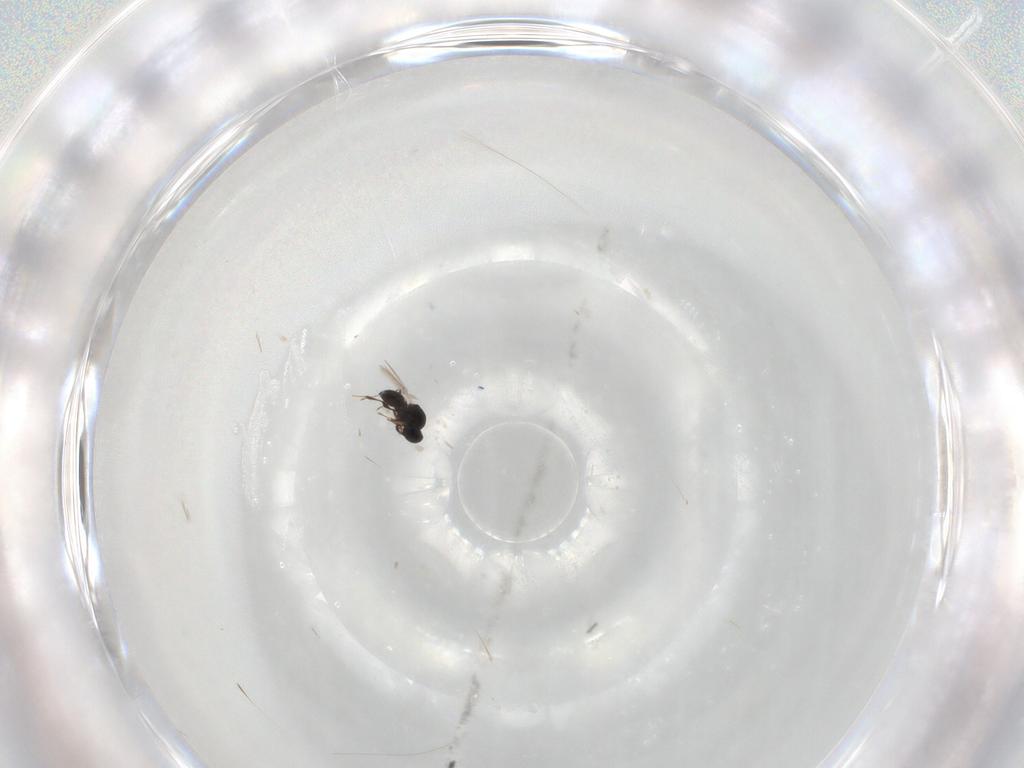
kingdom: Animalia
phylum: Arthropoda
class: Insecta
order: Hymenoptera
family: Platygastridae
